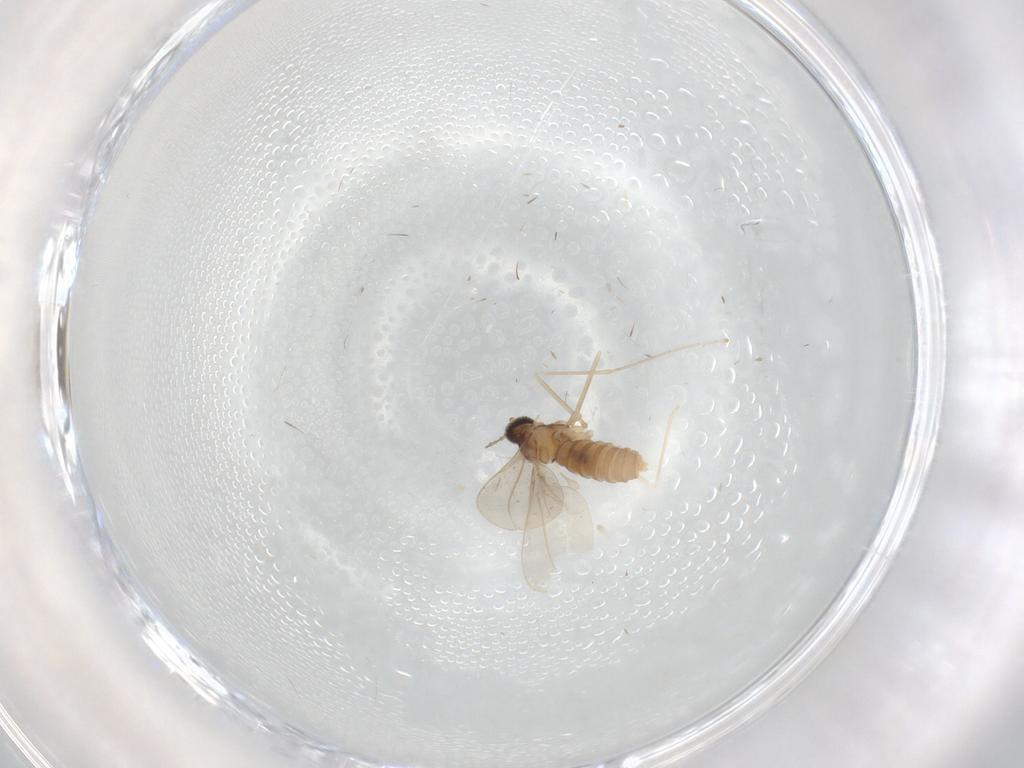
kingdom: Animalia
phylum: Arthropoda
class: Insecta
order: Diptera
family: Cecidomyiidae
